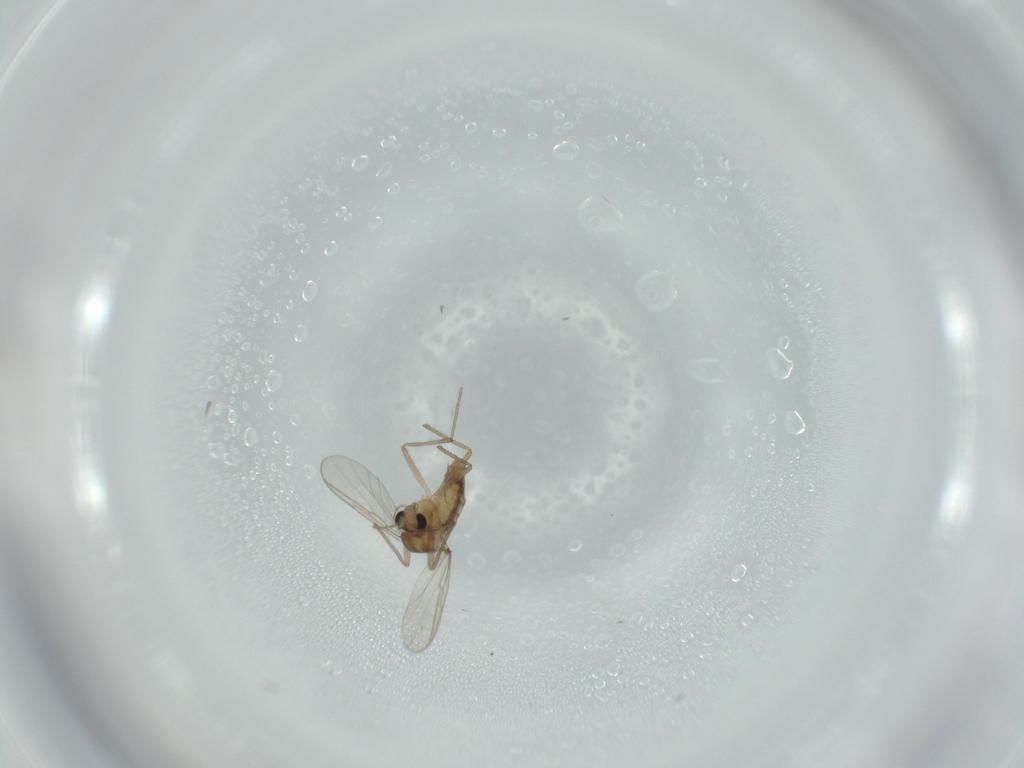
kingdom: Animalia
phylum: Arthropoda
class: Insecta
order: Diptera
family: Chironomidae
